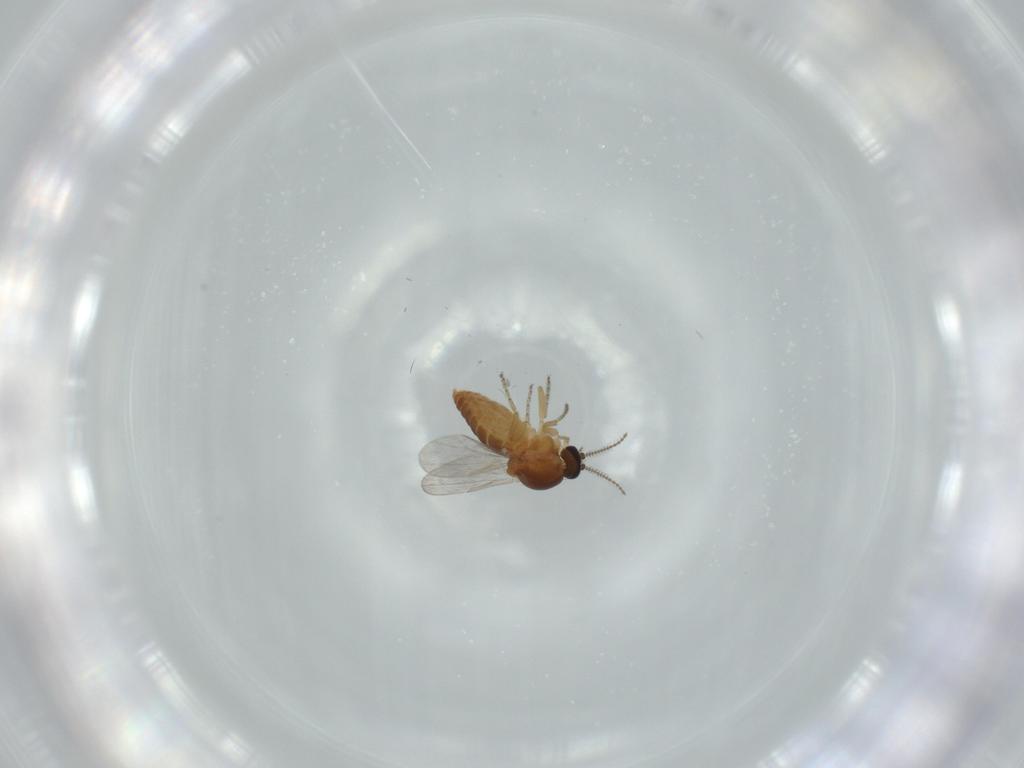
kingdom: Animalia
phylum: Arthropoda
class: Insecta
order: Diptera
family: Ceratopogonidae
